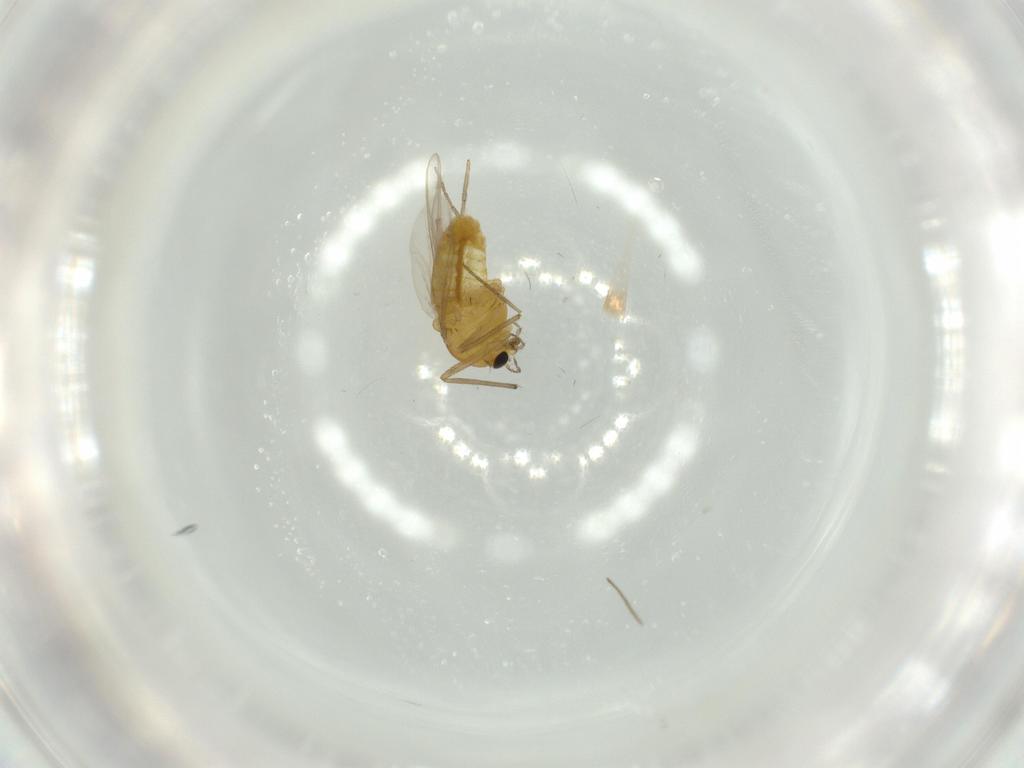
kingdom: Animalia
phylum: Arthropoda
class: Insecta
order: Diptera
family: Chironomidae
